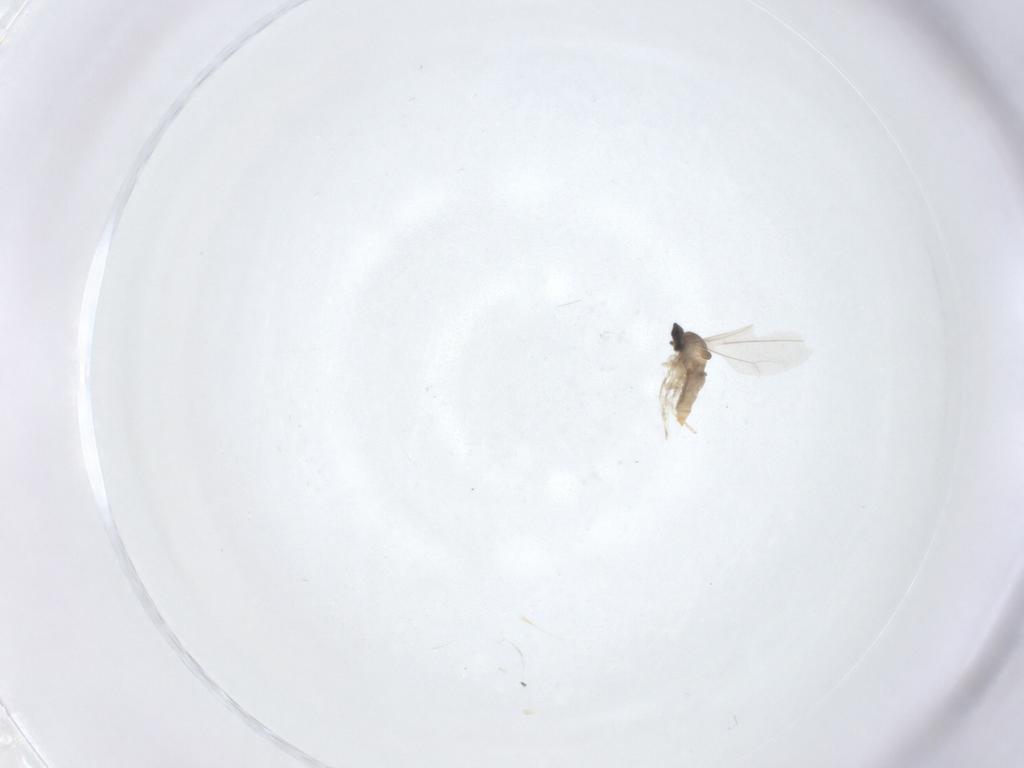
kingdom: Animalia
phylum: Arthropoda
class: Insecta
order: Diptera
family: Cecidomyiidae
